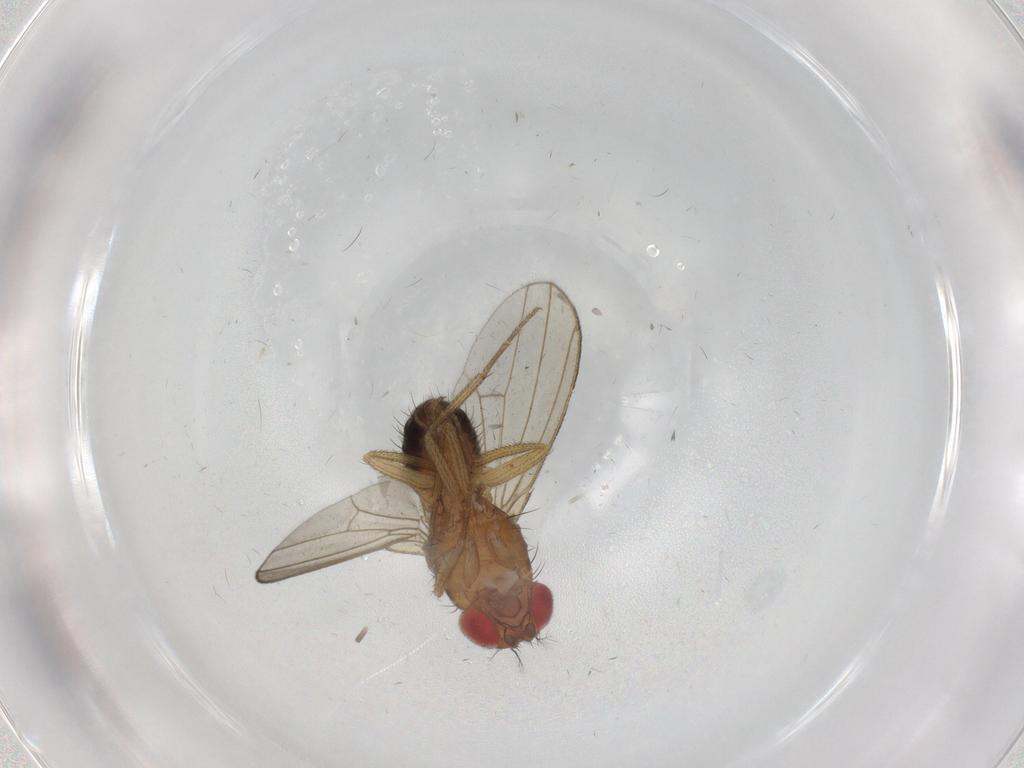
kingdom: Animalia
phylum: Arthropoda
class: Insecta
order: Diptera
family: Drosophilidae
